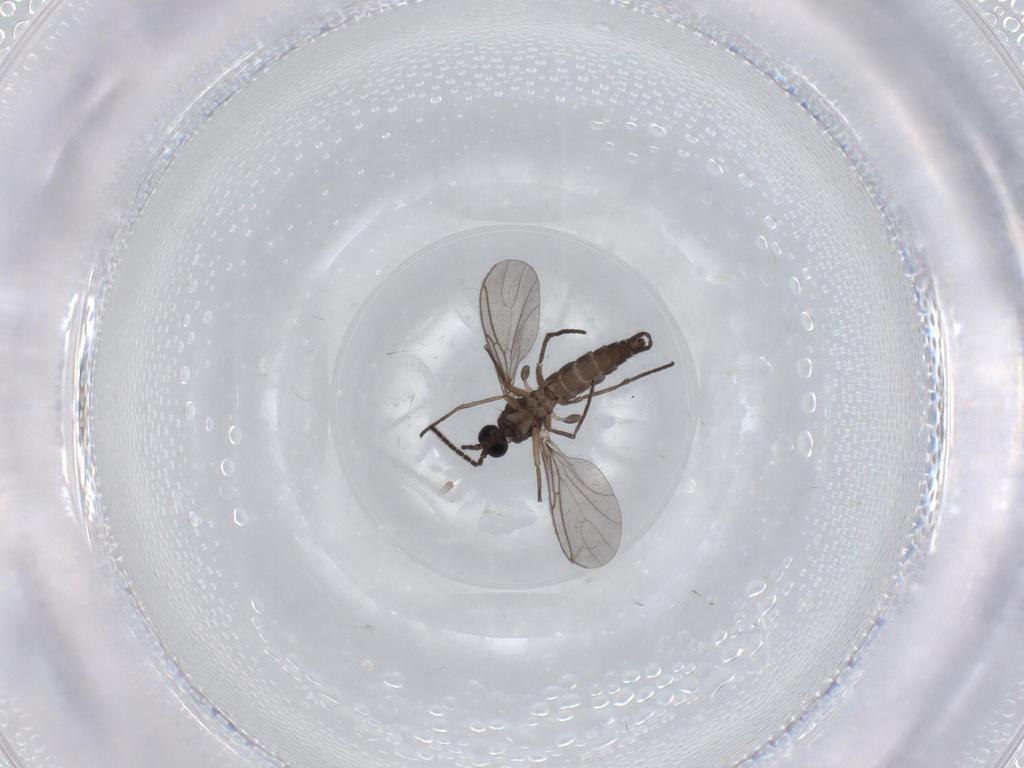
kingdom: Animalia
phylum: Arthropoda
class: Insecta
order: Diptera
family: Sciaridae
